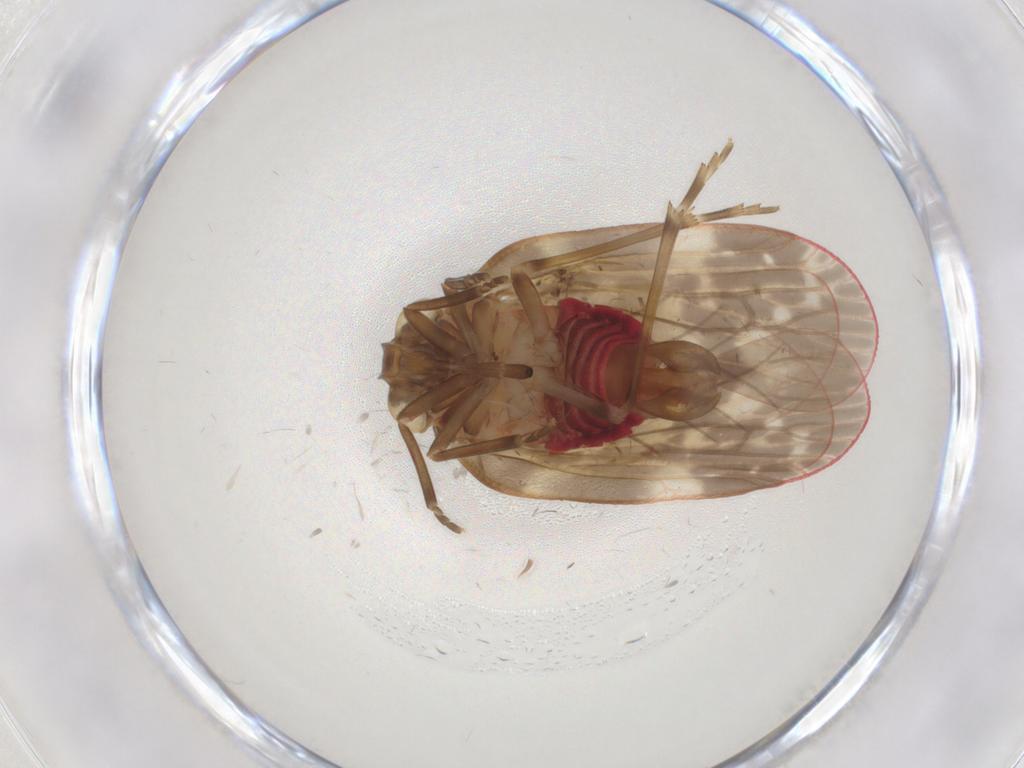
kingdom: Animalia
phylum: Arthropoda
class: Insecta
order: Hemiptera
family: Achilidae
